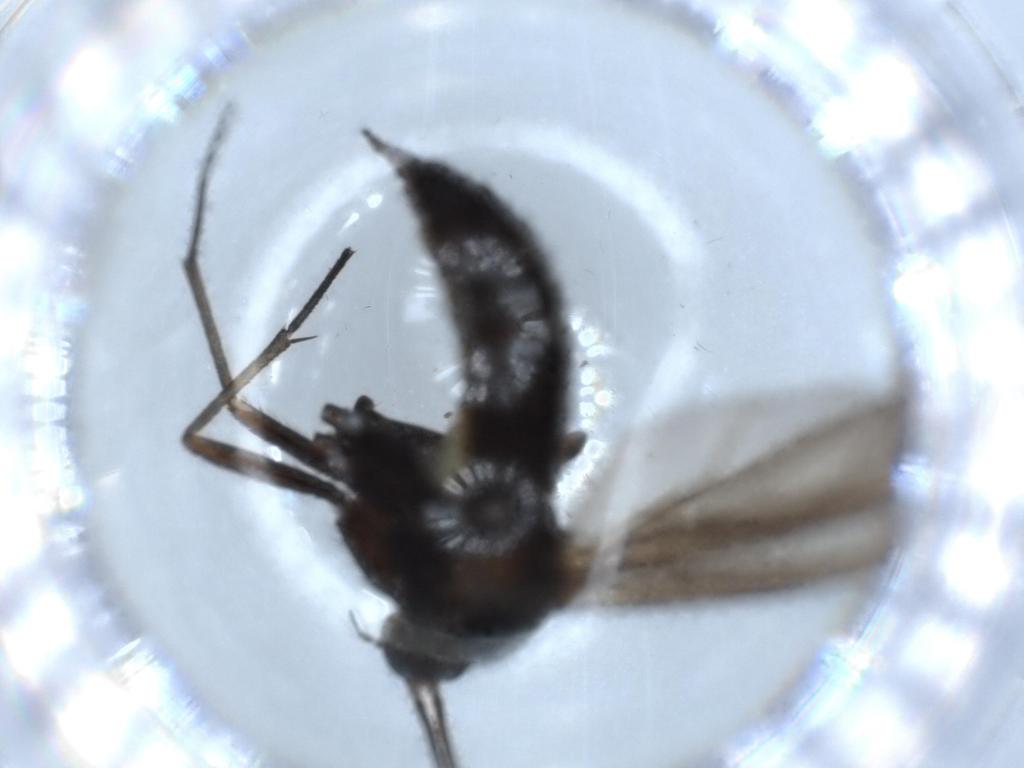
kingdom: Animalia
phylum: Arthropoda
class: Insecta
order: Diptera
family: Sciaridae
